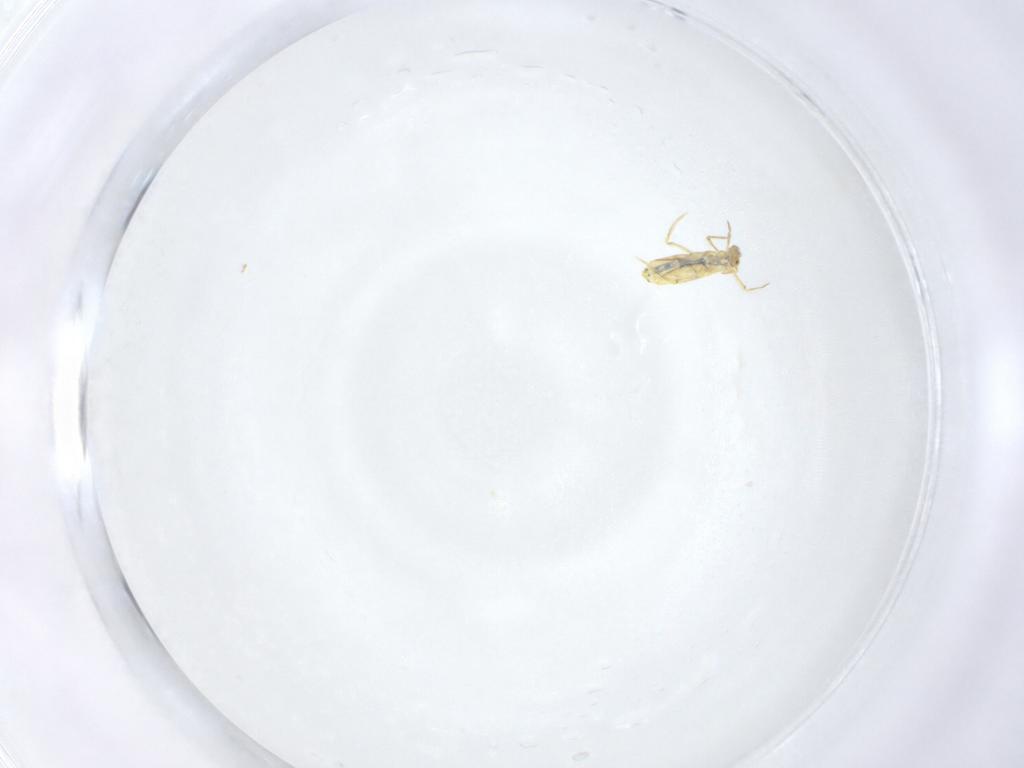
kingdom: Animalia
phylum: Arthropoda
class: Collembola
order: Entomobryomorpha
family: Entomobryidae
